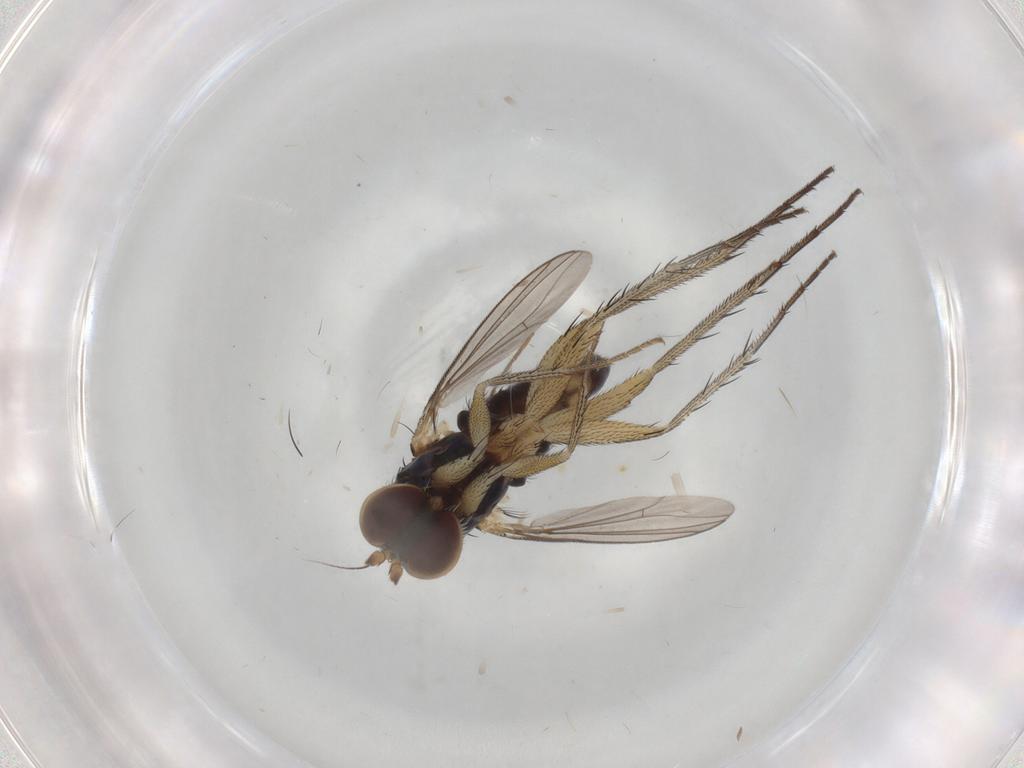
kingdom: Animalia
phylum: Arthropoda
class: Insecta
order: Diptera
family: Dolichopodidae
